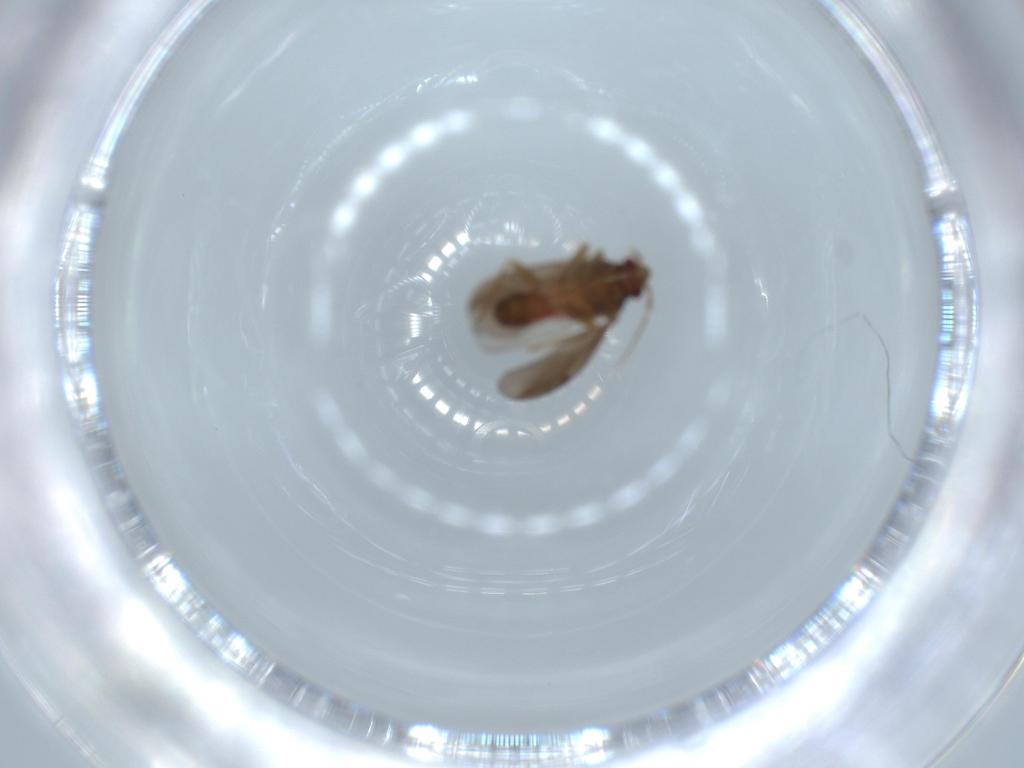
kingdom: Animalia
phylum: Arthropoda
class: Insecta
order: Hemiptera
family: Ceratocombidae
